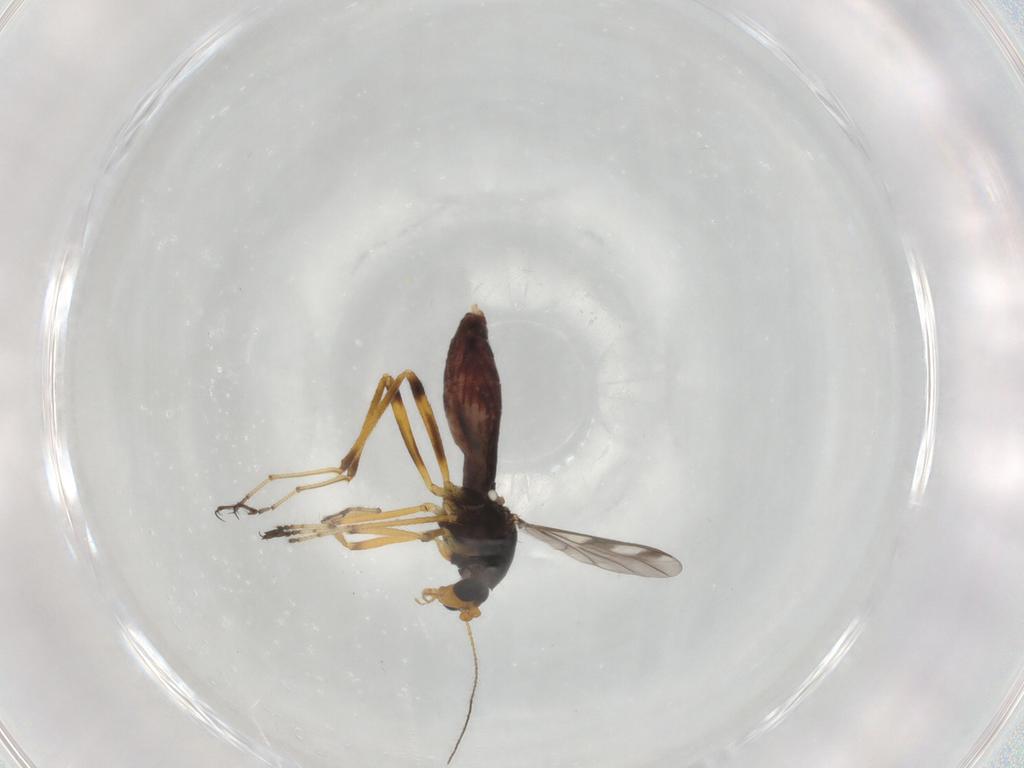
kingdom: Animalia
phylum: Arthropoda
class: Insecta
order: Diptera
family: Ceratopogonidae
